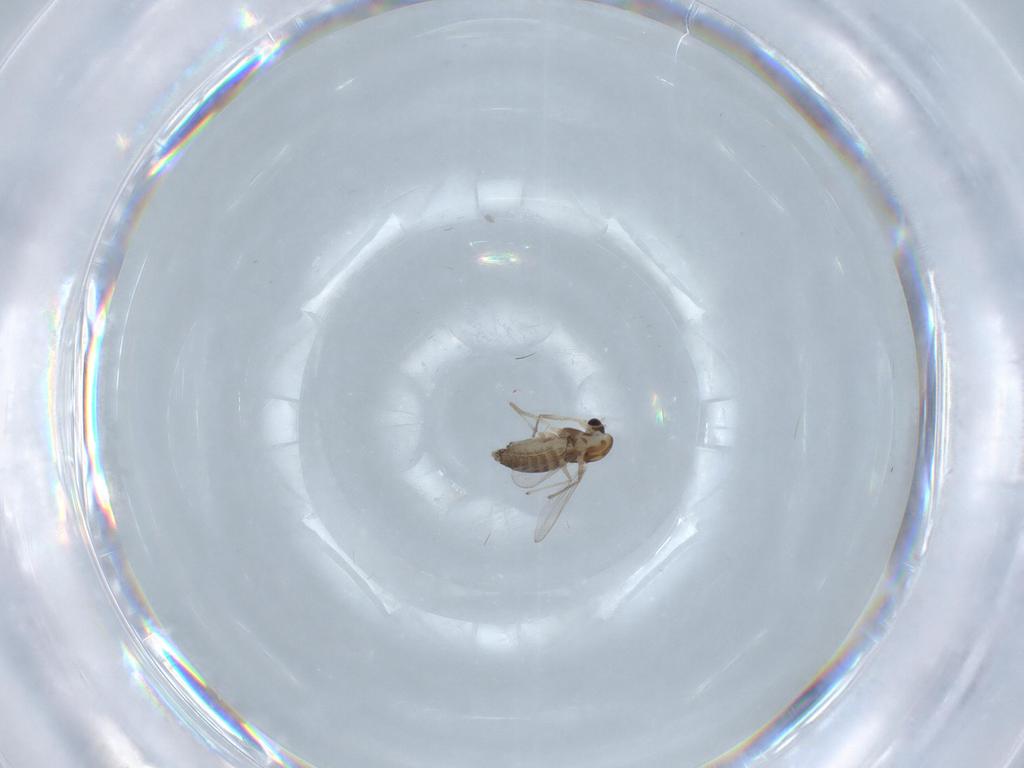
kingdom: Animalia
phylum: Arthropoda
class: Insecta
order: Diptera
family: Chironomidae
